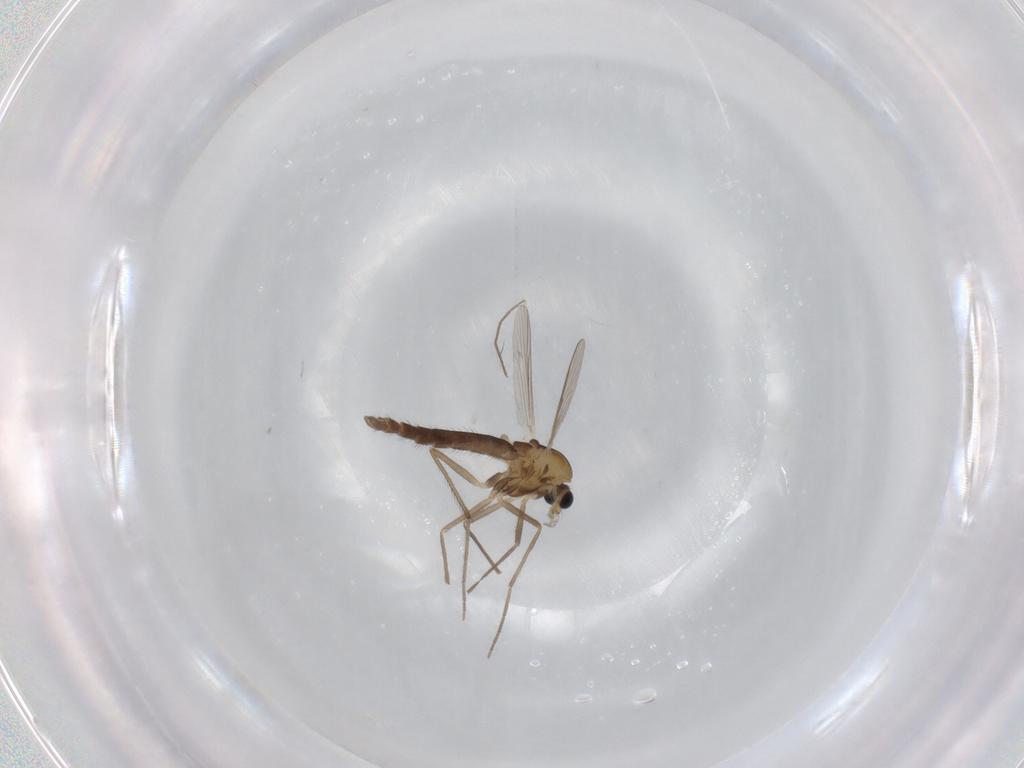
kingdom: Animalia
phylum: Arthropoda
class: Insecta
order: Diptera
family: Chironomidae
